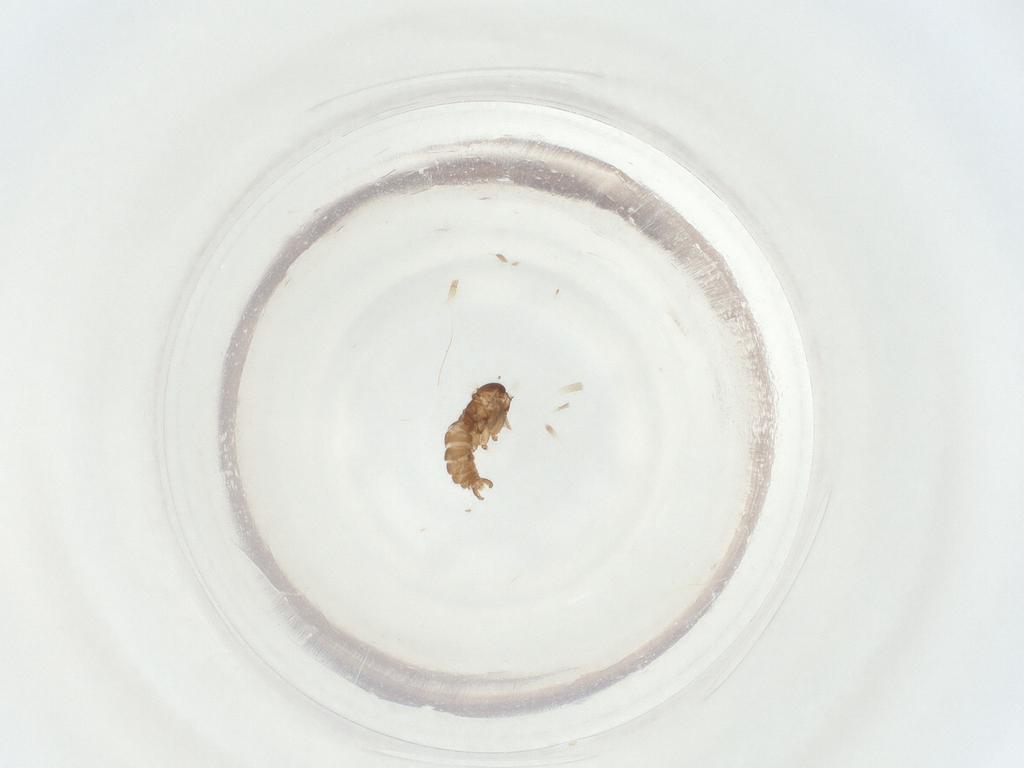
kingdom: Animalia
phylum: Arthropoda
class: Insecta
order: Diptera
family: Sciaridae
